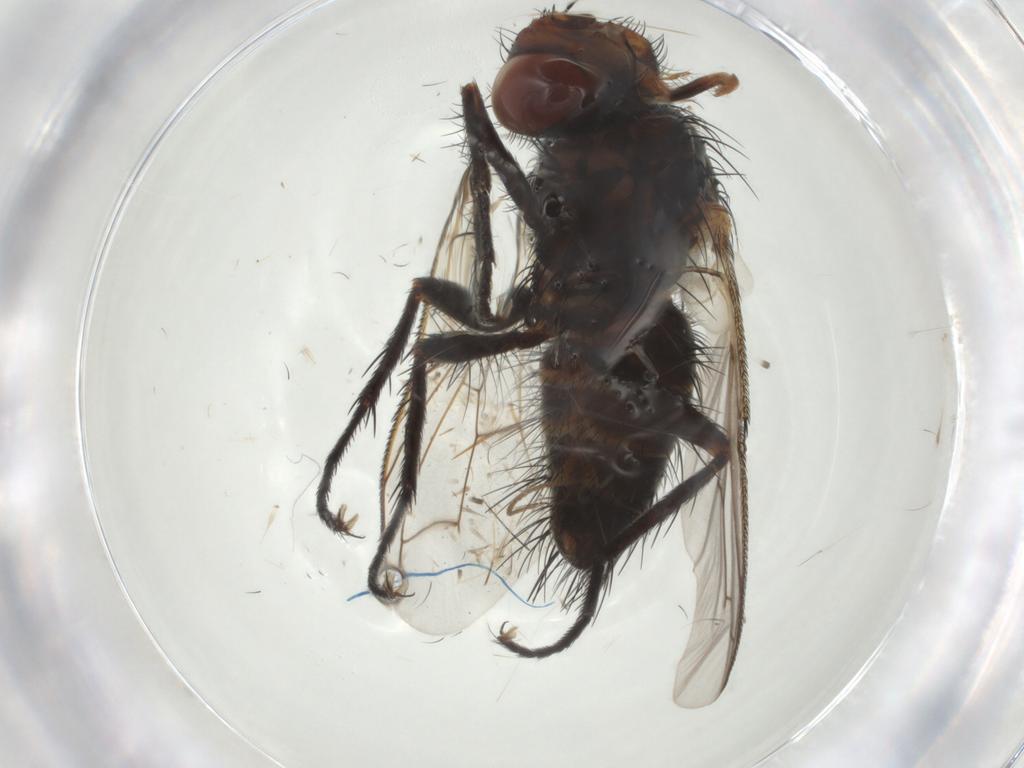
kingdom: Animalia
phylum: Arthropoda
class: Insecta
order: Diptera
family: Tachinidae
